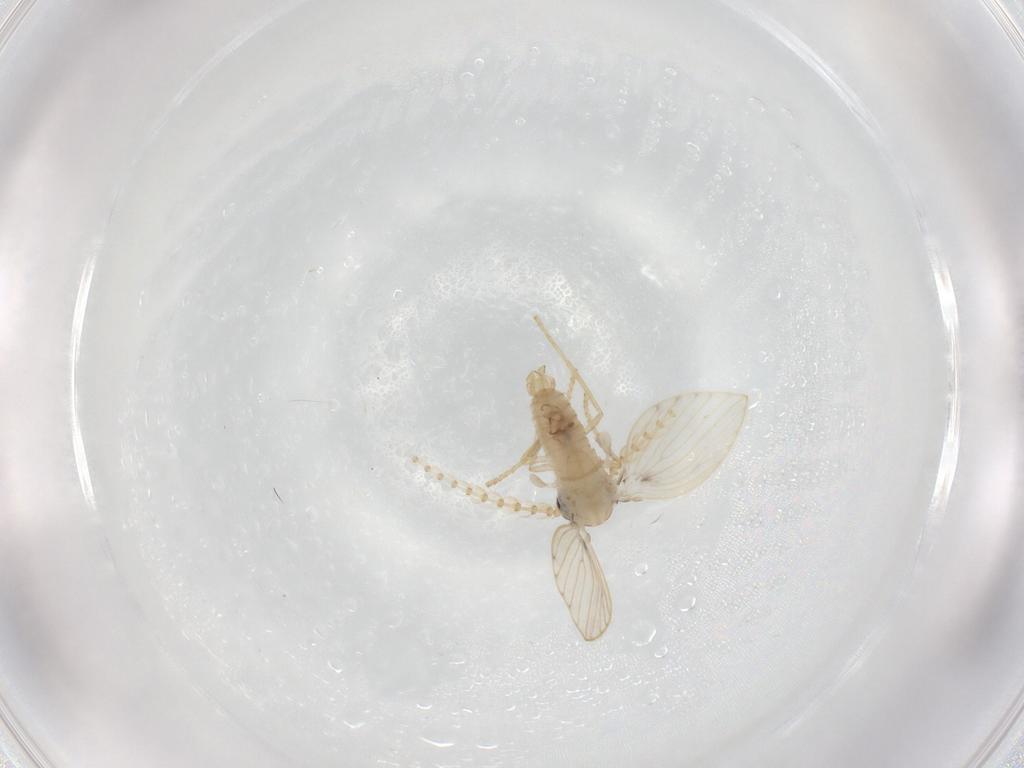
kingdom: Animalia
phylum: Arthropoda
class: Insecta
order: Diptera
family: Psychodidae
